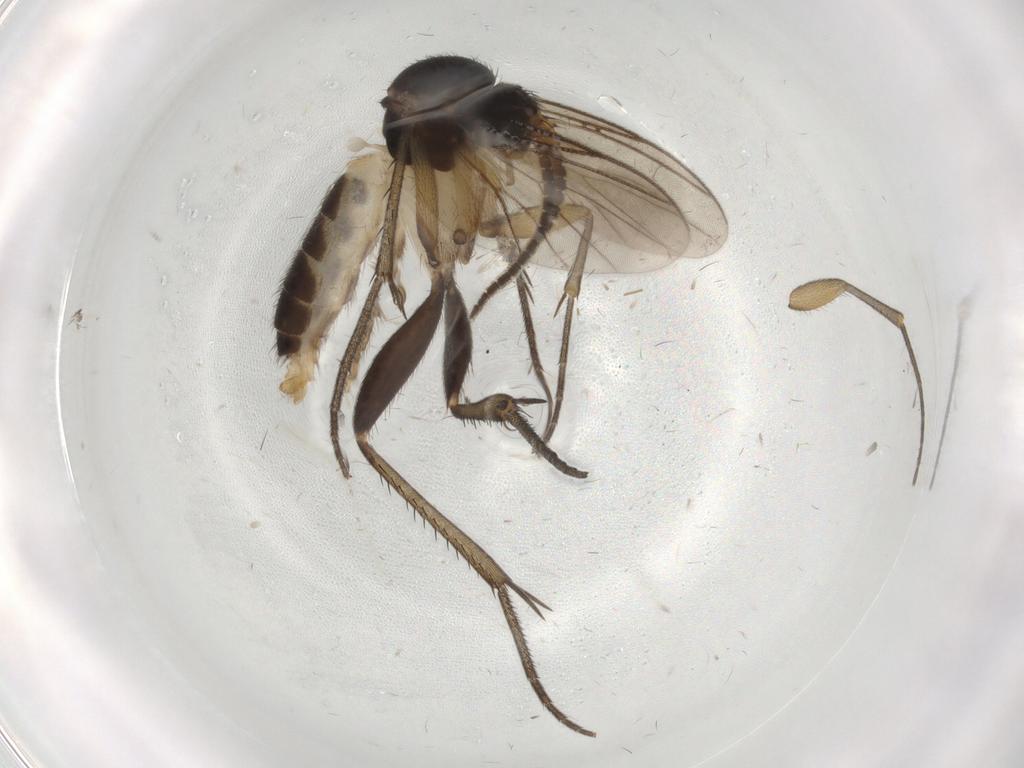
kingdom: Animalia
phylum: Arthropoda
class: Insecta
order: Diptera
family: Mycetophilidae
